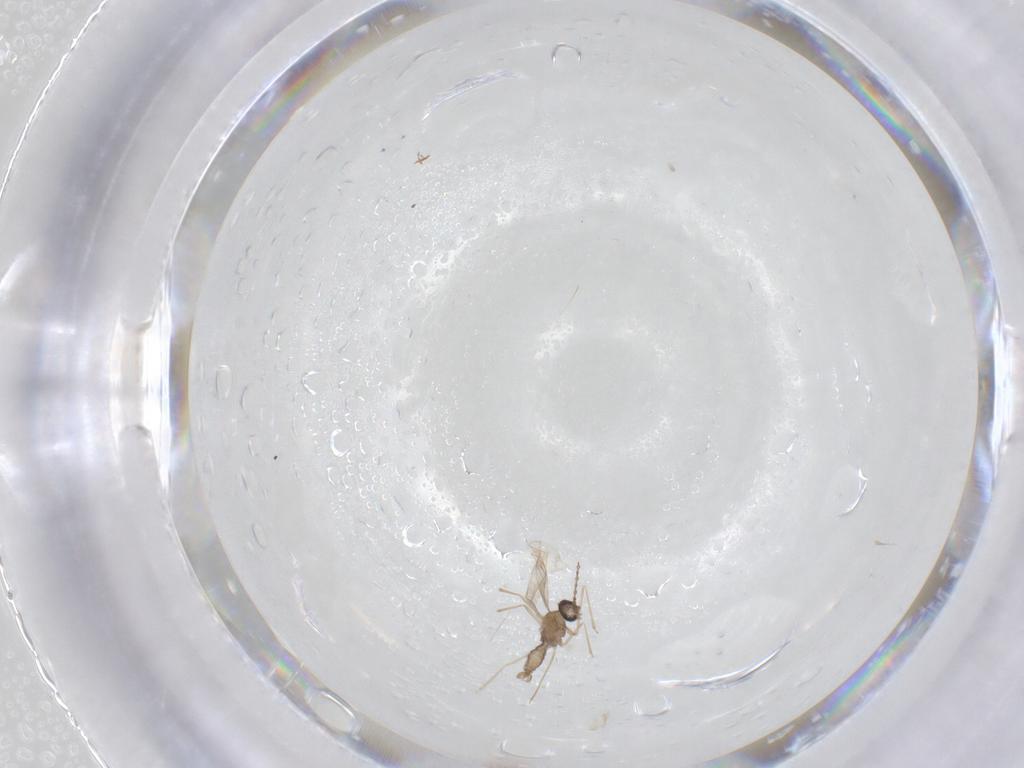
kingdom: Animalia
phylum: Arthropoda
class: Insecta
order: Diptera
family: Cecidomyiidae
